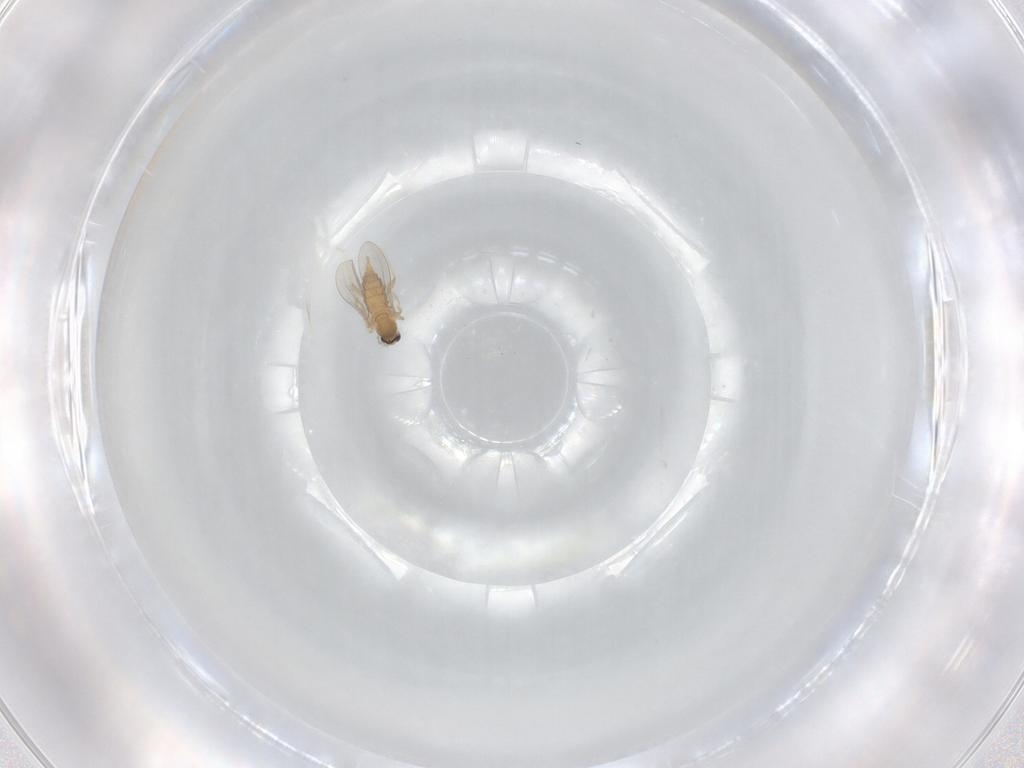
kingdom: Animalia
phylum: Arthropoda
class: Insecta
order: Diptera
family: Cecidomyiidae
